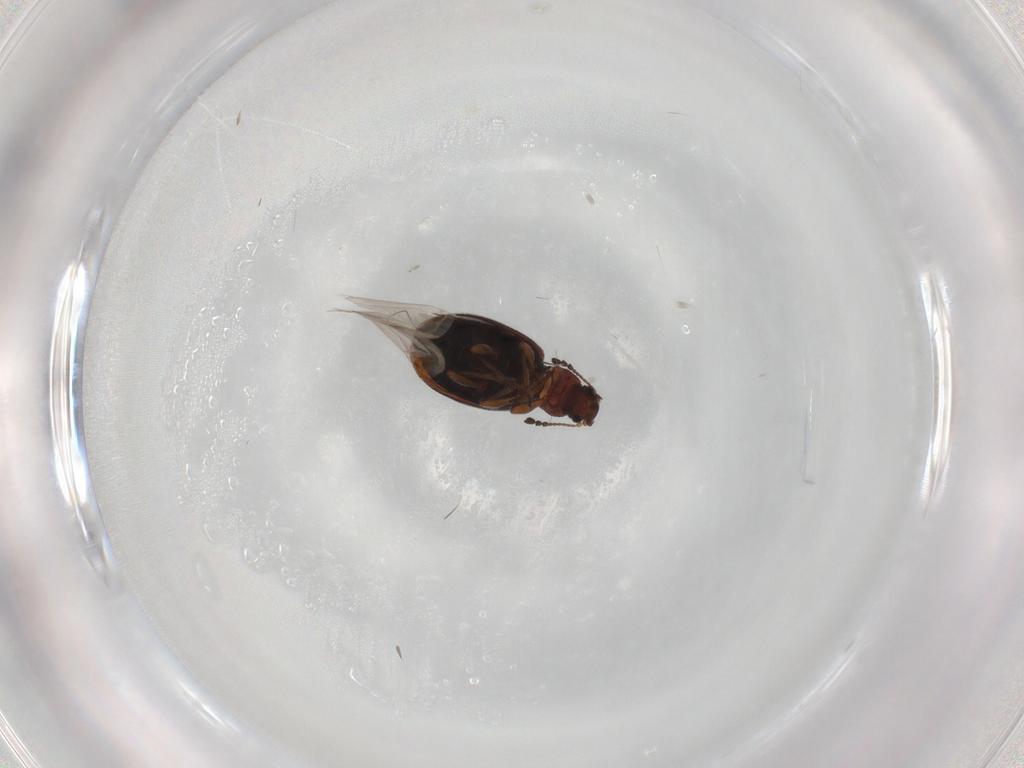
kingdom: Animalia
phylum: Arthropoda
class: Insecta
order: Coleoptera
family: Latridiidae
